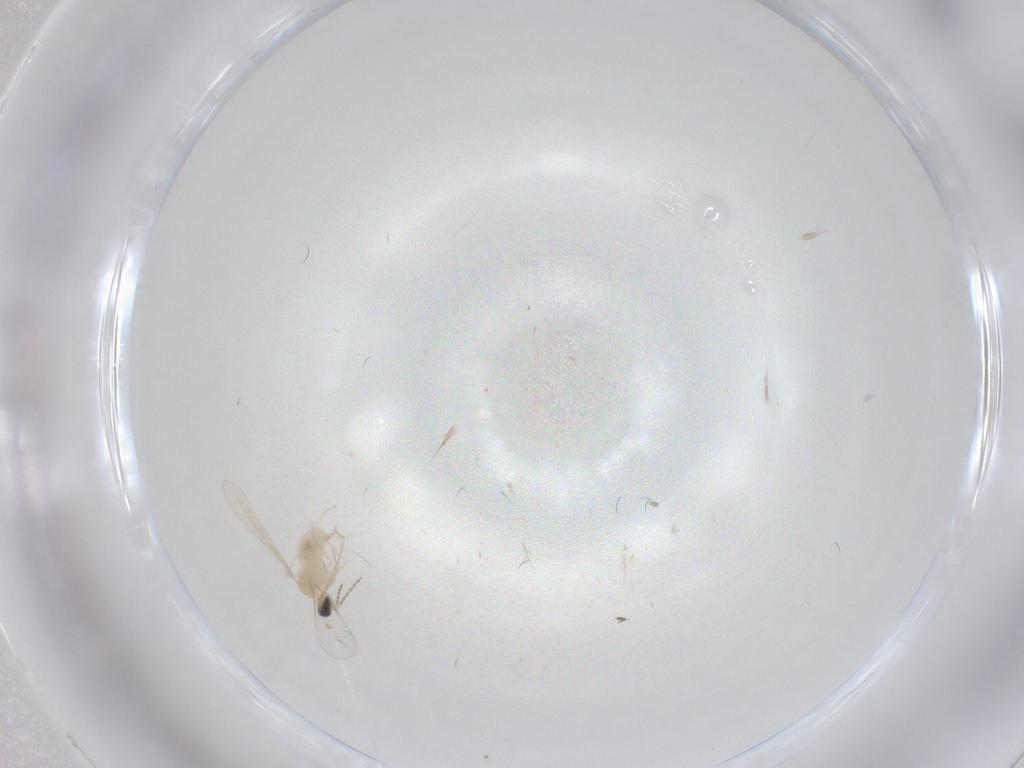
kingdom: Animalia
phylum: Arthropoda
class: Insecta
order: Diptera
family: Cecidomyiidae
